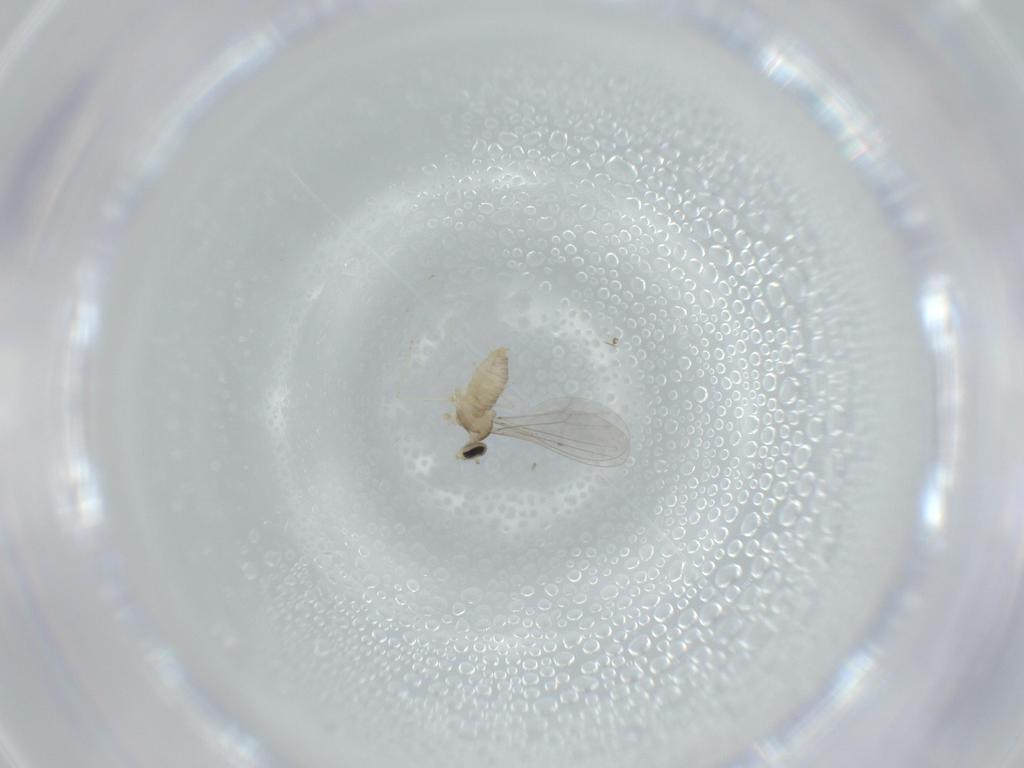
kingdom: Animalia
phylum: Arthropoda
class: Insecta
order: Diptera
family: Cecidomyiidae
